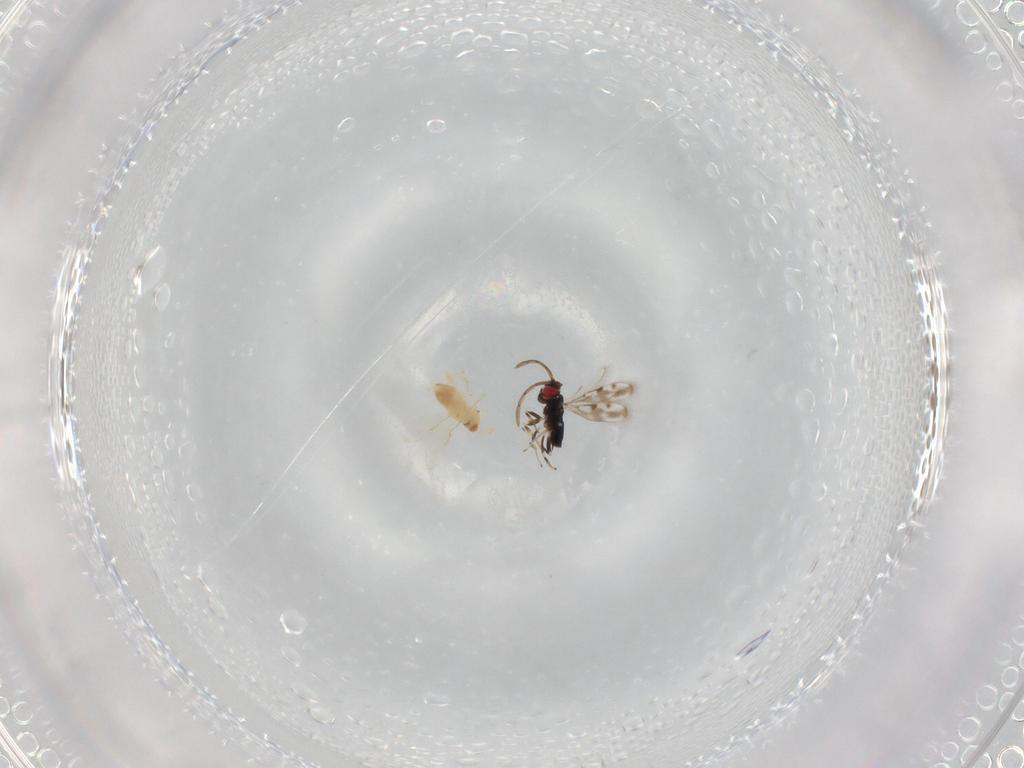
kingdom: Animalia
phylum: Arthropoda
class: Insecta
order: Hymenoptera
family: Azotidae
